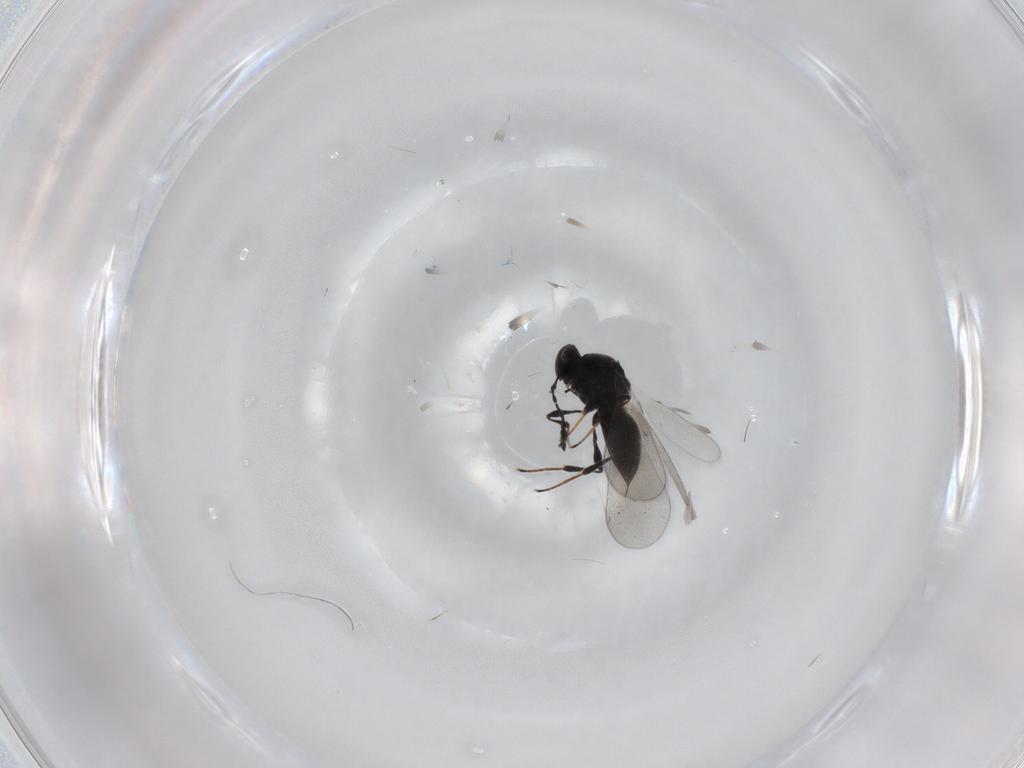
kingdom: Animalia
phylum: Arthropoda
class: Insecta
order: Hymenoptera
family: Platygastridae
